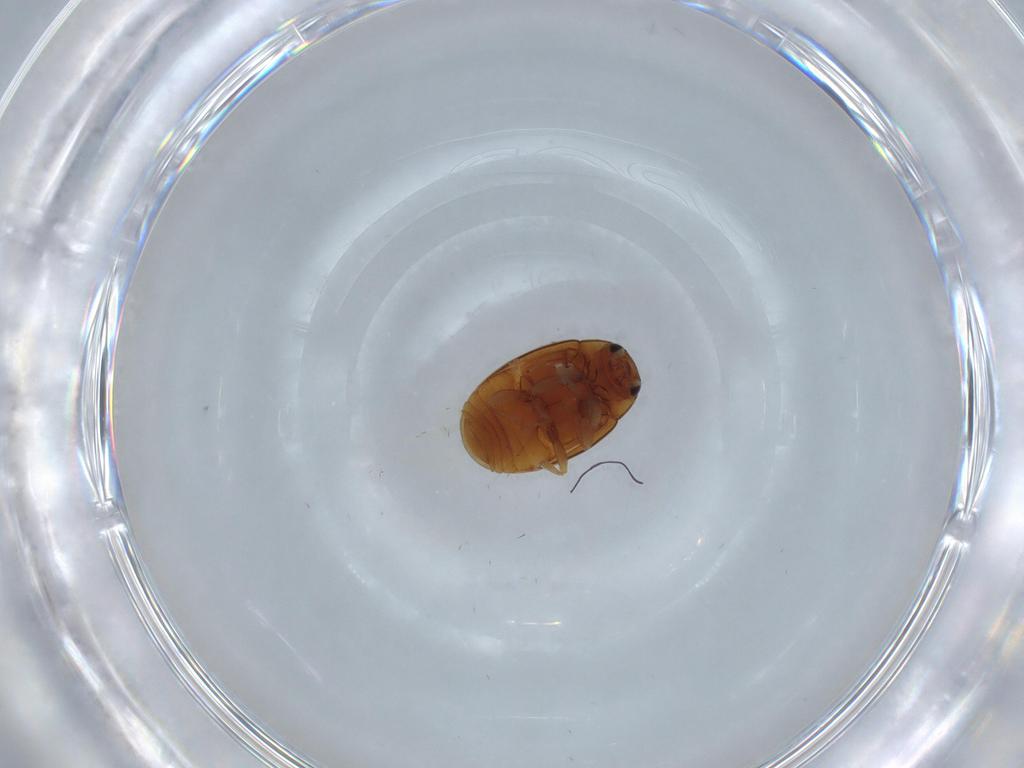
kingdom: Animalia
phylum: Arthropoda
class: Insecta
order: Coleoptera
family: Coccinellidae
